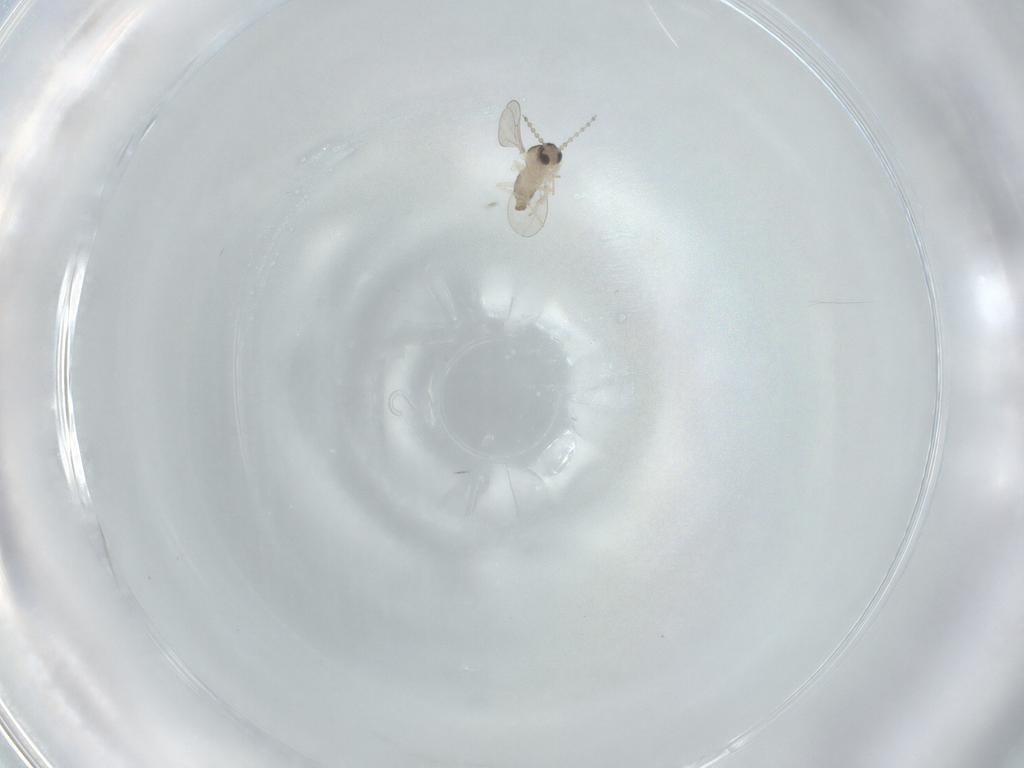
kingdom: Animalia
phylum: Arthropoda
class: Insecta
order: Diptera
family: Cecidomyiidae
